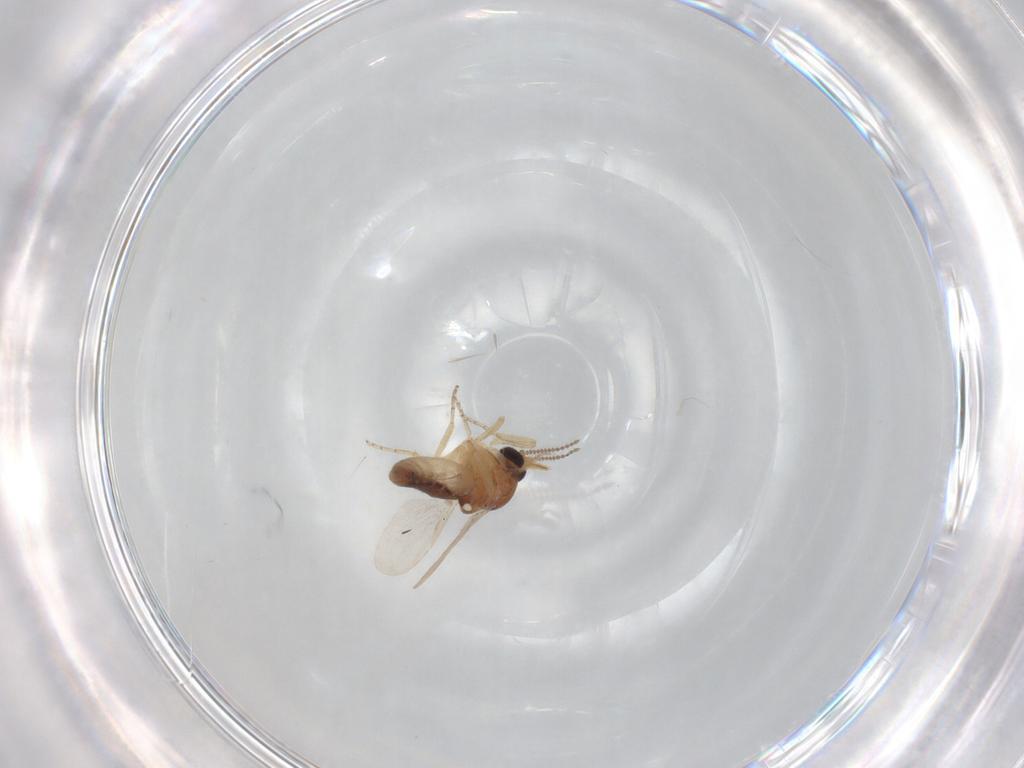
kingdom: Animalia
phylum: Arthropoda
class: Insecta
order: Diptera
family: Ceratopogonidae
